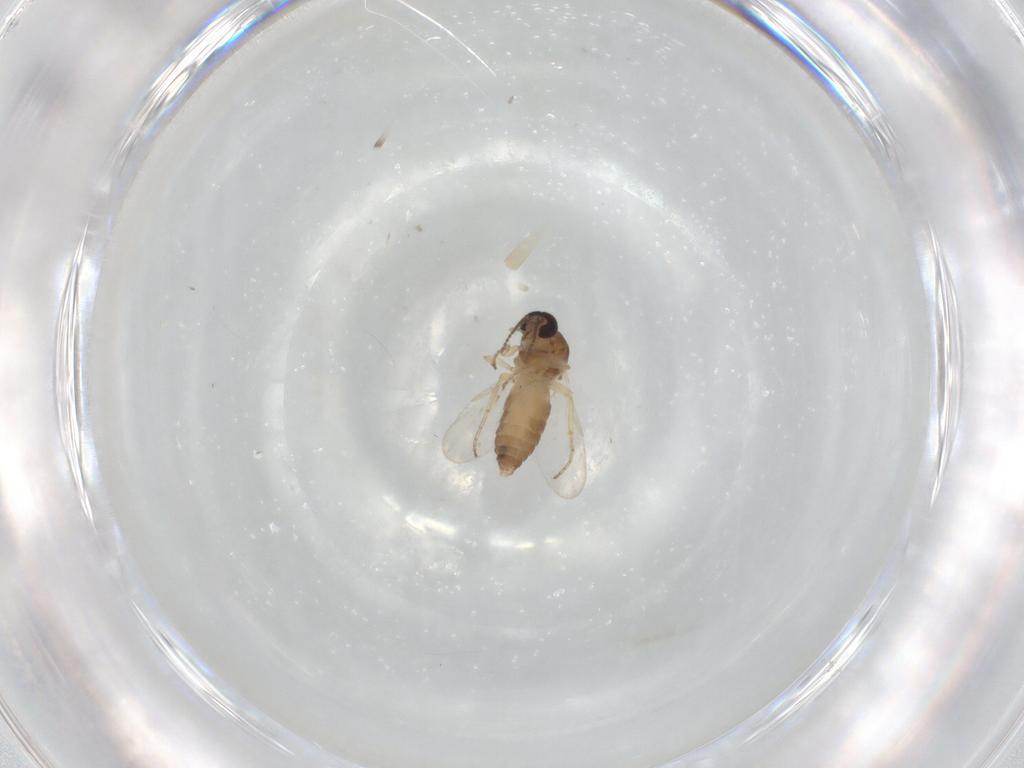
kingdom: Animalia
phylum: Arthropoda
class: Insecta
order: Diptera
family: Ceratopogonidae
